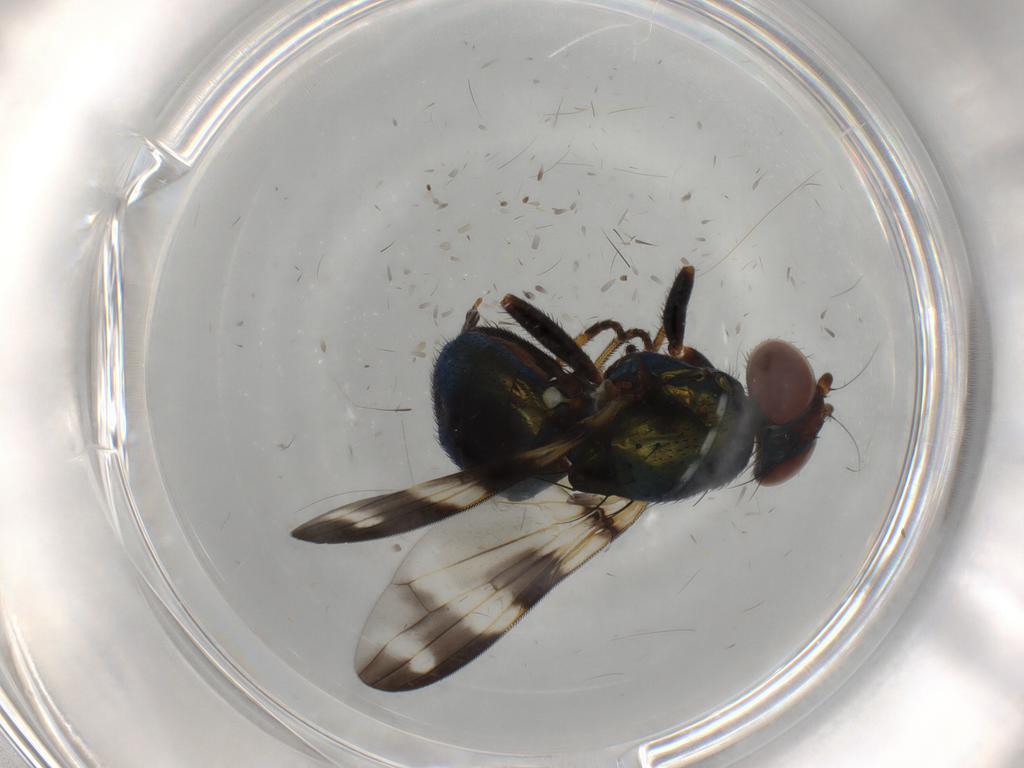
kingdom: Animalia
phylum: Arthropoda
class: Insecta
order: Diptera
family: Ulidiidae
